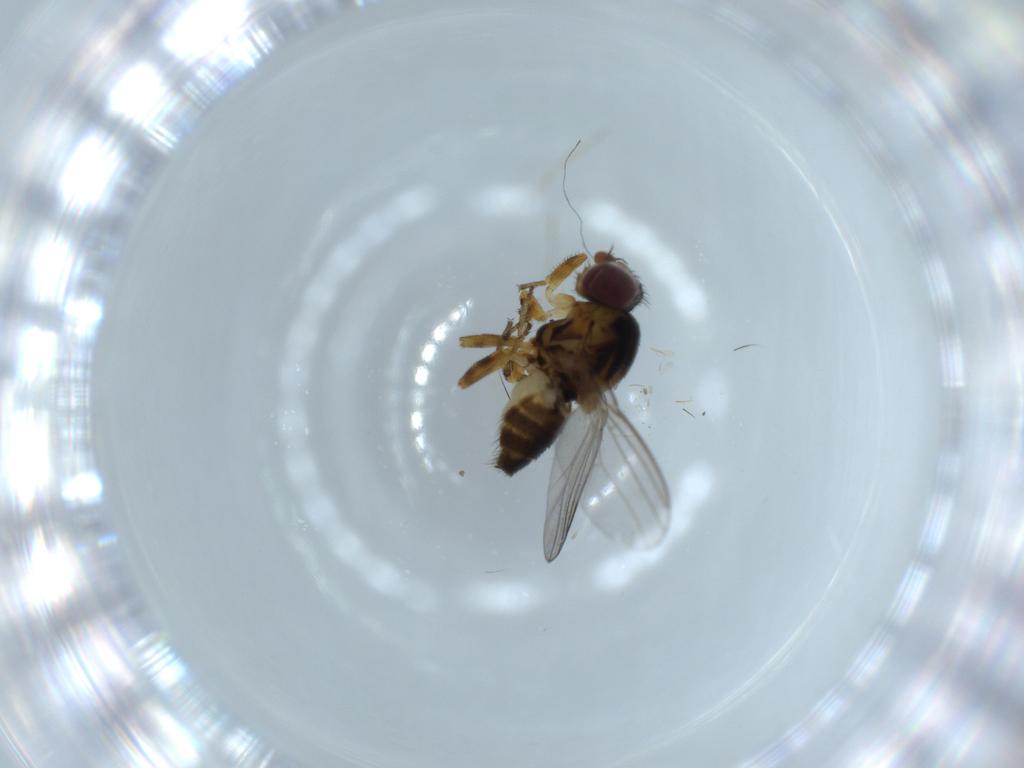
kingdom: Animalia
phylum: Arthropoda
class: Insecta
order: Diptera
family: Chloropidae
